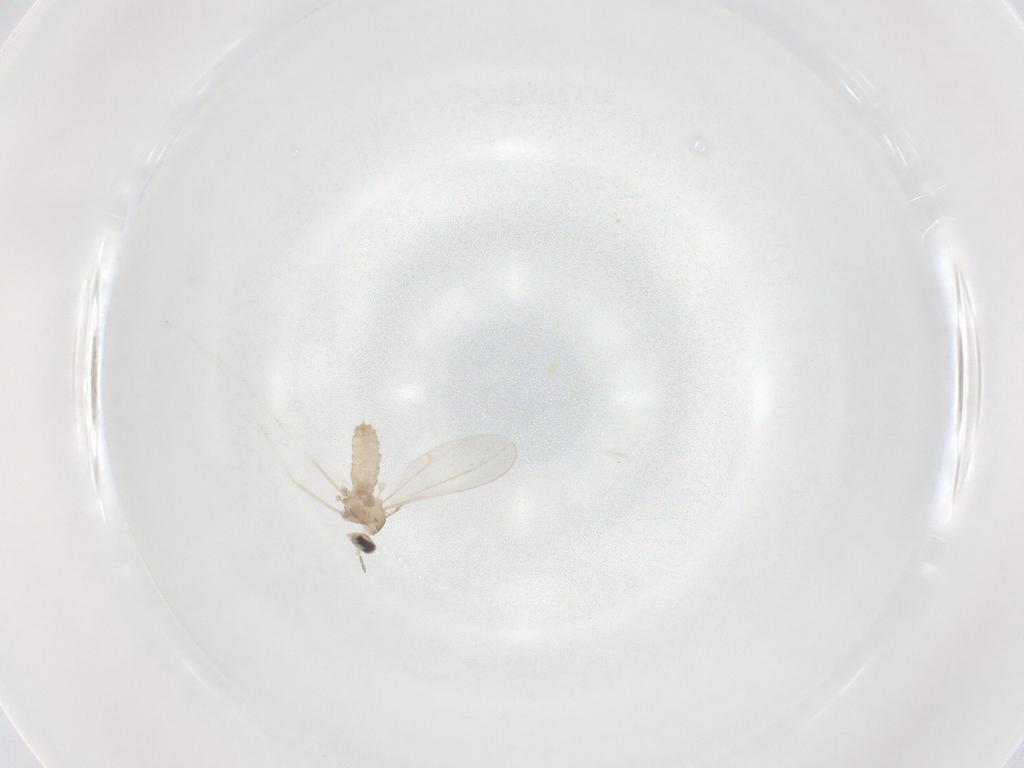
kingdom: Animalia
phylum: Arthropoda
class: Insecta
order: Diptera
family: Cecidomyiidae
